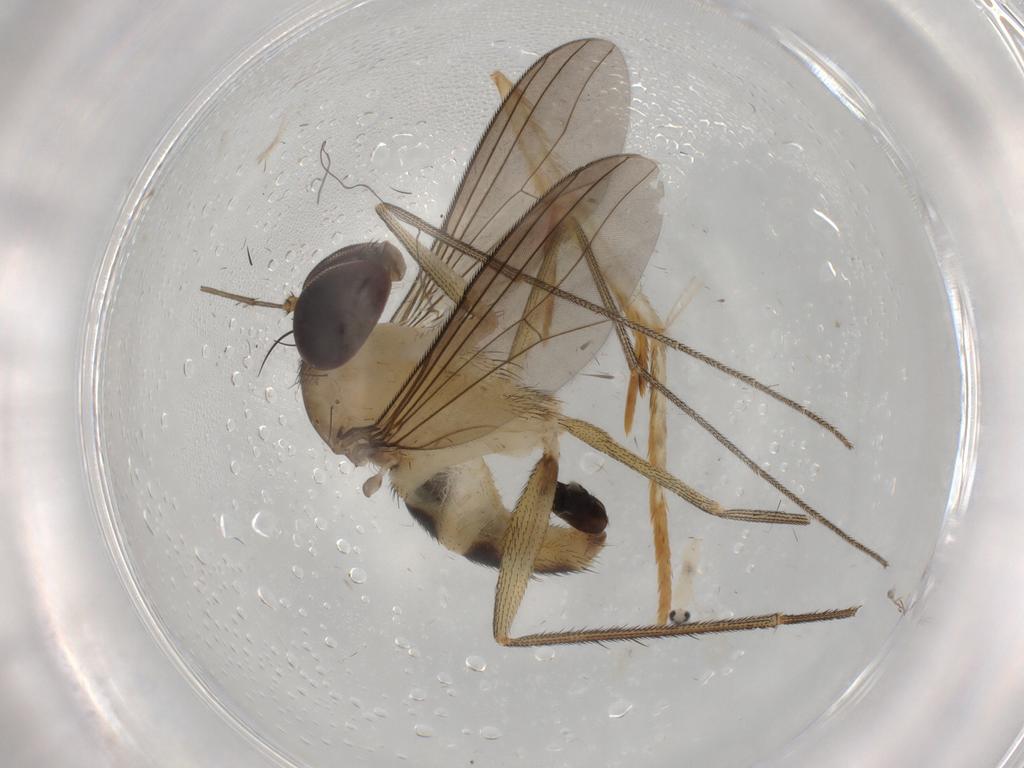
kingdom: Animalia
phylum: Arthropoda
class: Insecta
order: Diptera
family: Dolichopodidae
